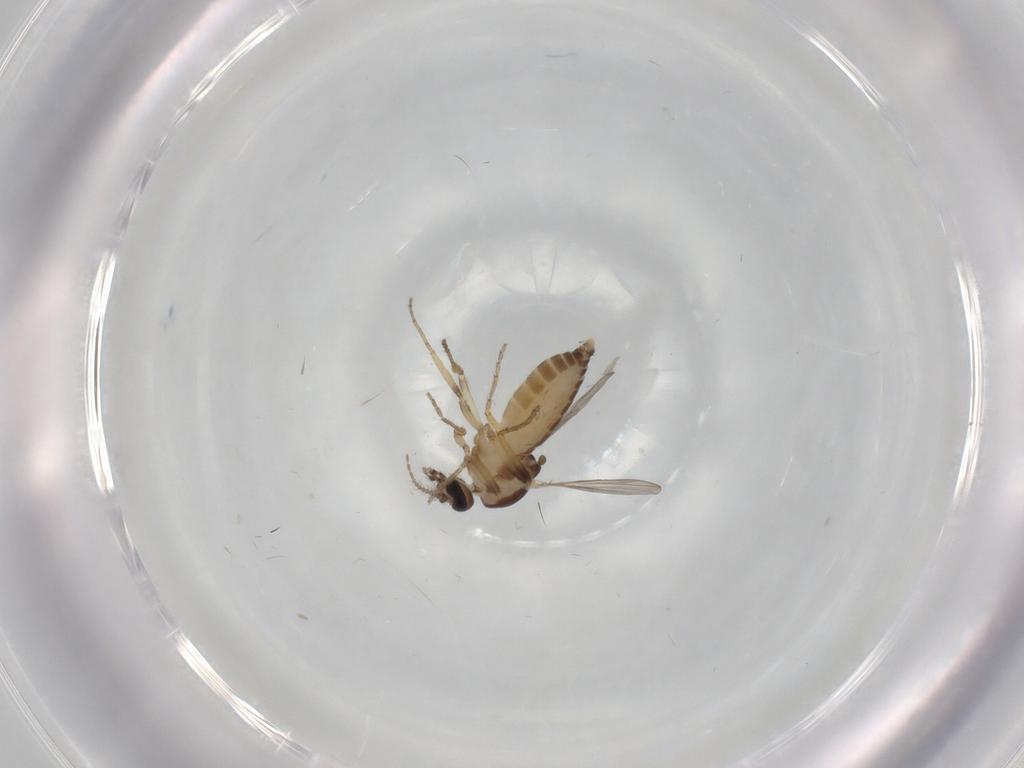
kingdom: Animalia
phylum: Arthropoda
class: Insecta
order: Diptera
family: Ceratopogonidae
